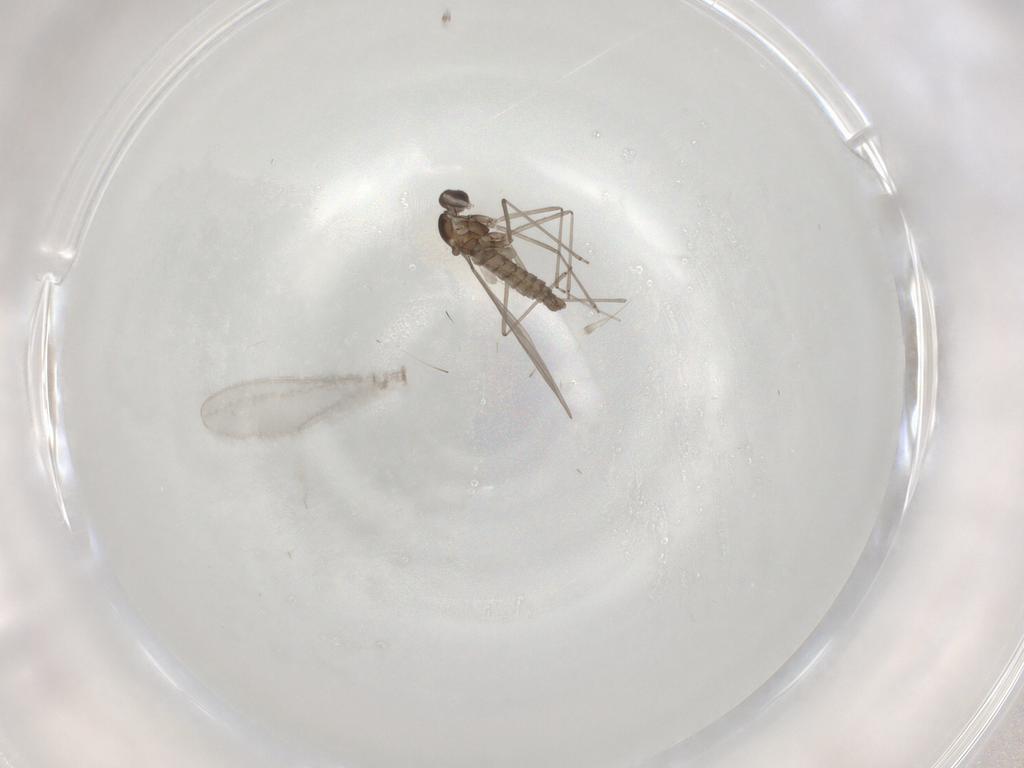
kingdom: Animalia
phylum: Arthropoda
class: Insecta
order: Diptera
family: Cecidomyiidae
